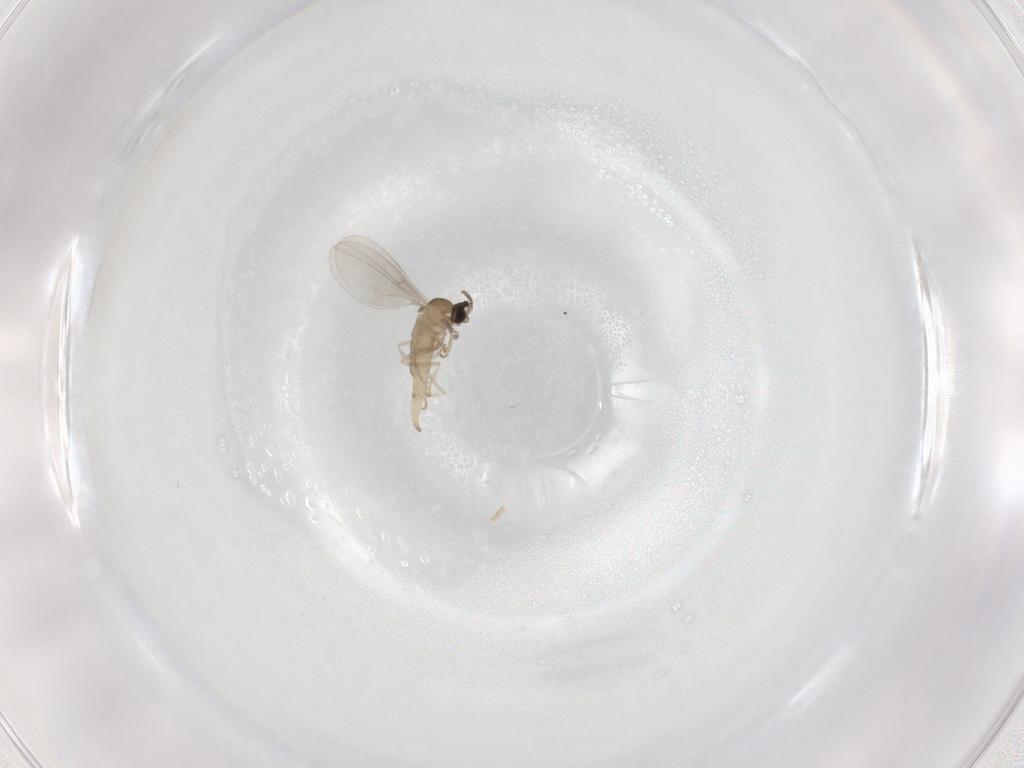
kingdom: Animalia
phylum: Arthropoda
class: Insecta
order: Diptera
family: Cecidomyiidae
